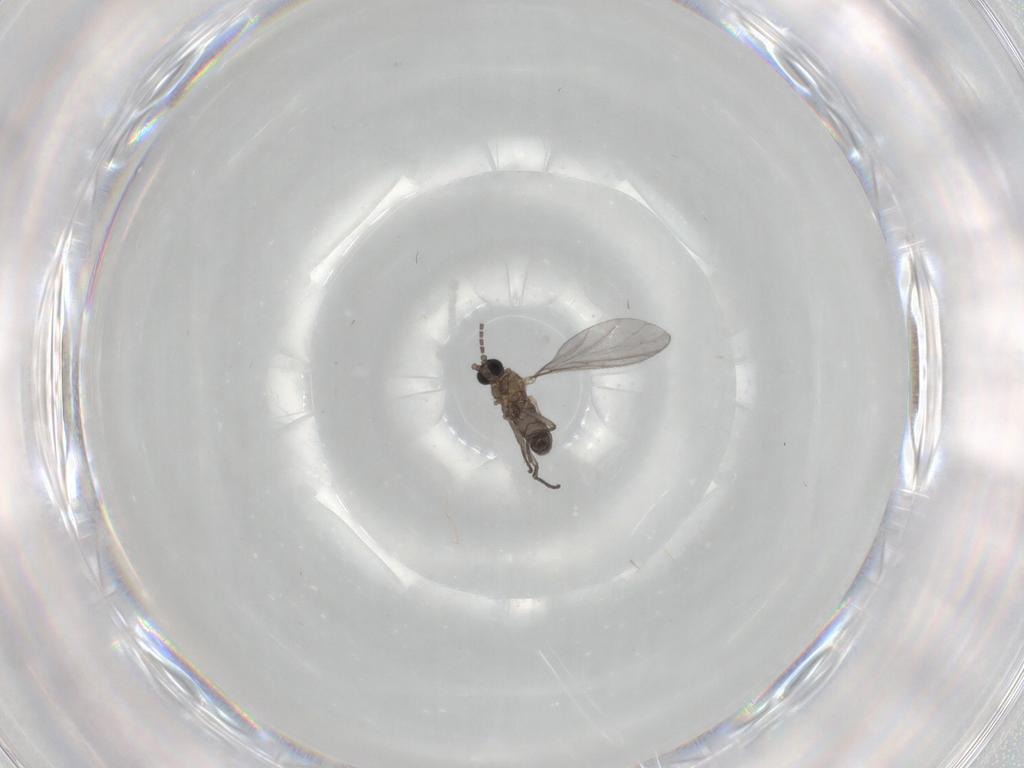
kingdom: Animalia
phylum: Arthropoda
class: Insecta
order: Diptera
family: Sciaridae
